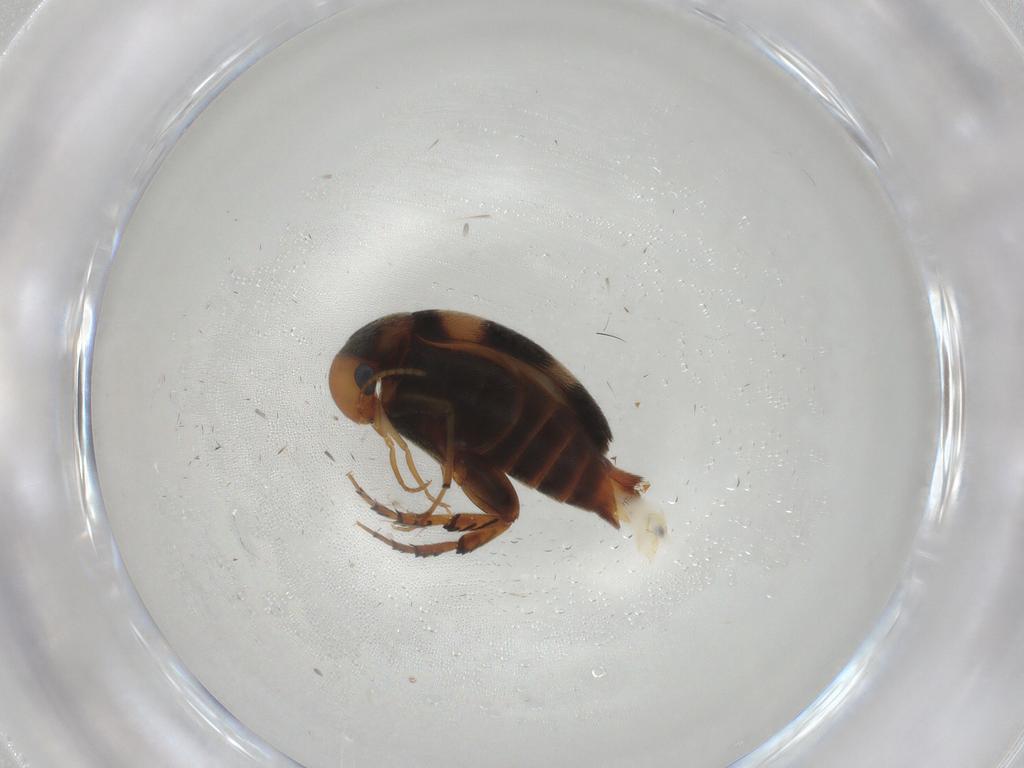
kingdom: Animalia
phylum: Arthropoda
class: Insecta
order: Coleoptera
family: Mordellidae
